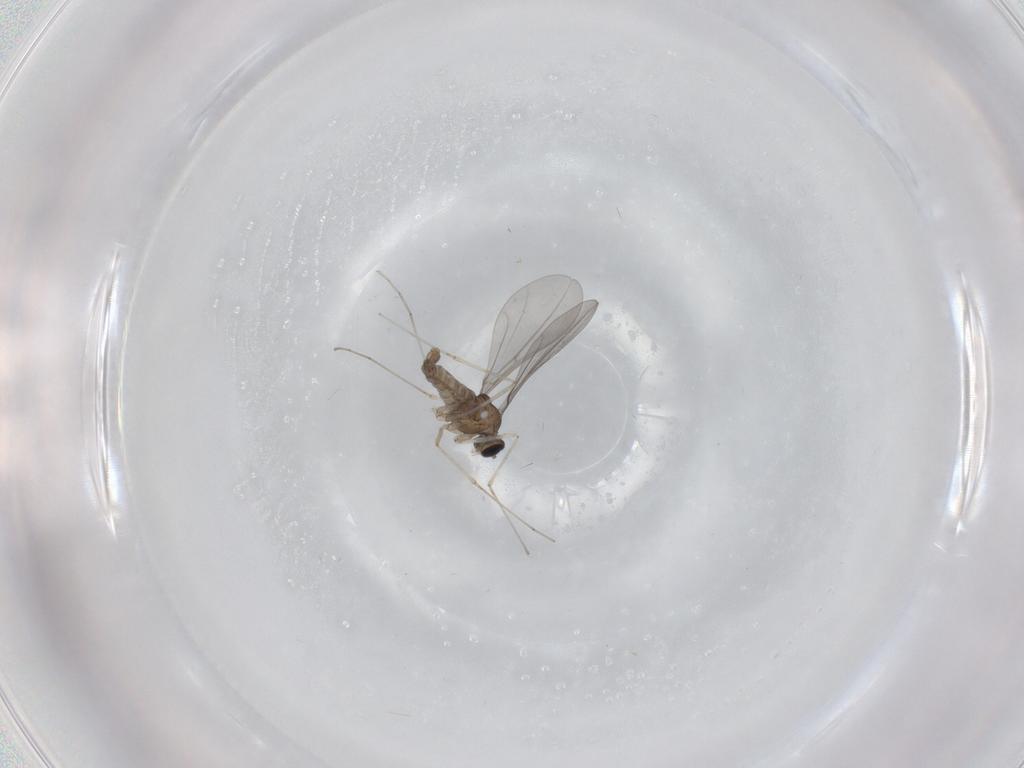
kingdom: Animalia
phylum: Arthropoda
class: Insecta
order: Diptera
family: Cecidomyiidae
